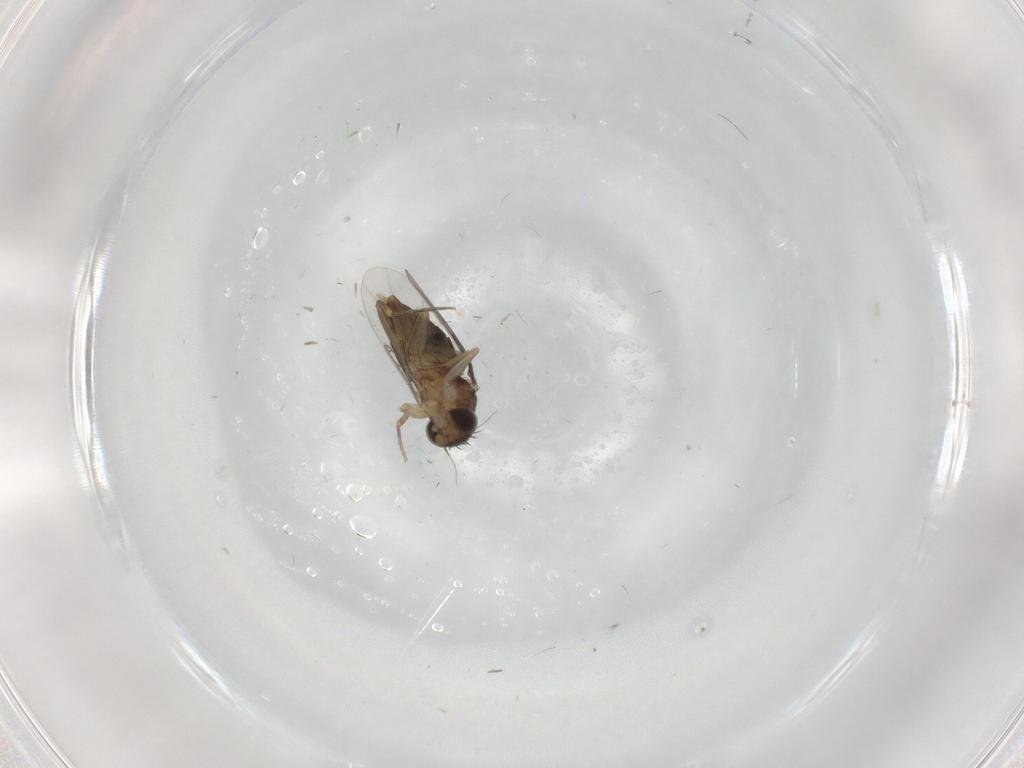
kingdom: Animalia
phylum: Arthropoda
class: Insecta
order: Diptera
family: Phoridae
